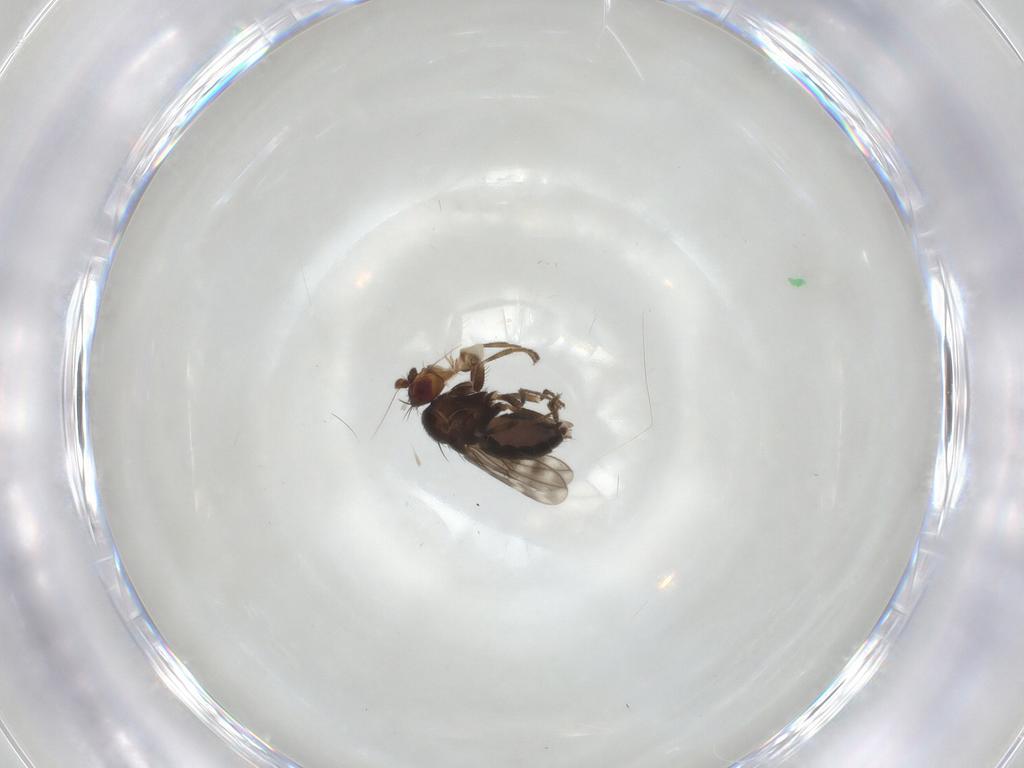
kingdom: Animalia
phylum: Arthropoda
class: Insecta
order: Diptera
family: Sphaeroceridae
